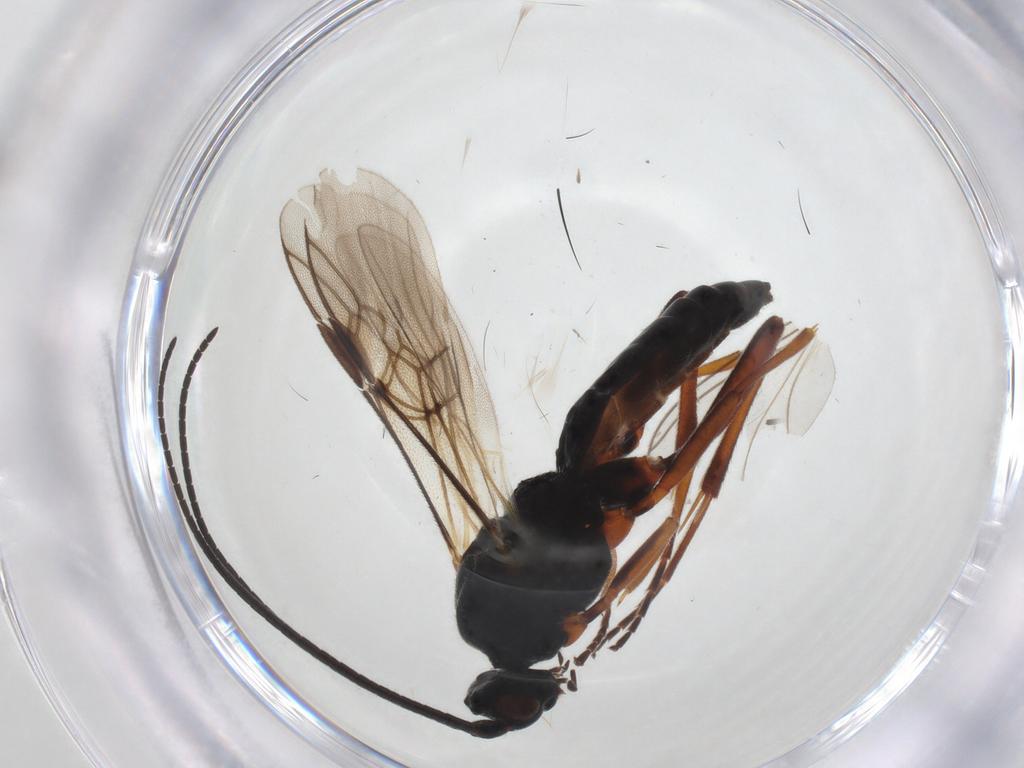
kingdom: Animalia
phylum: Arthropoda
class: Insecta
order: Hymenoptera
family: Braconidae
